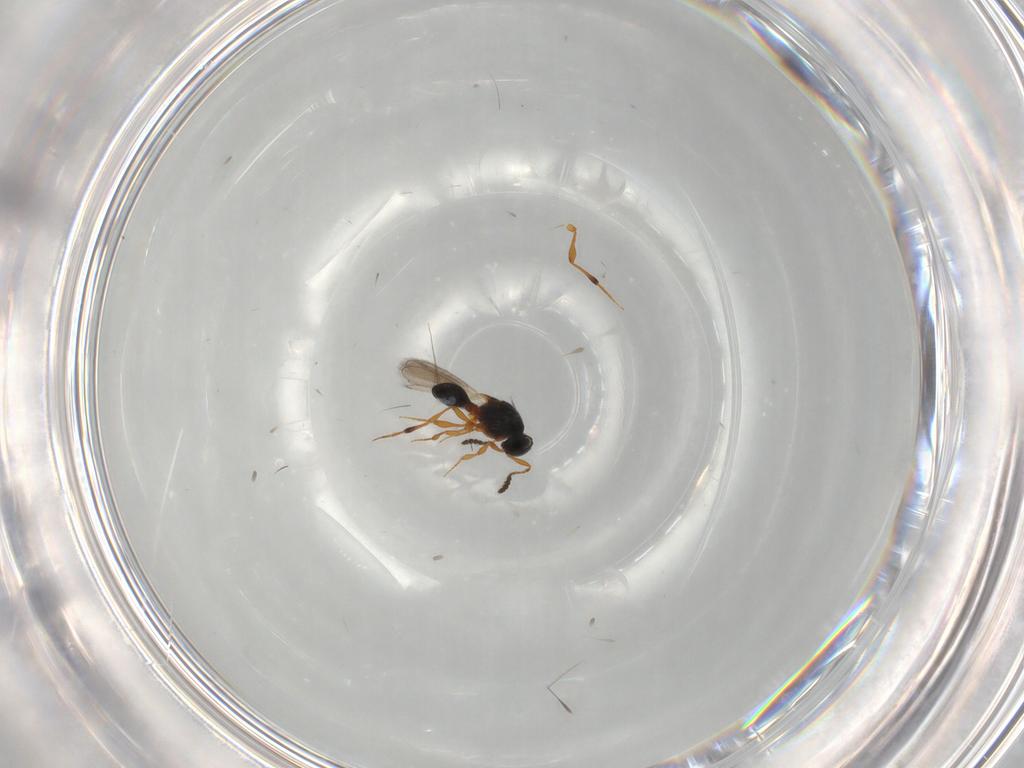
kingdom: Animalia
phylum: Arthropoda
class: Insecta
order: Hymenoptera
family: Platygastridae
